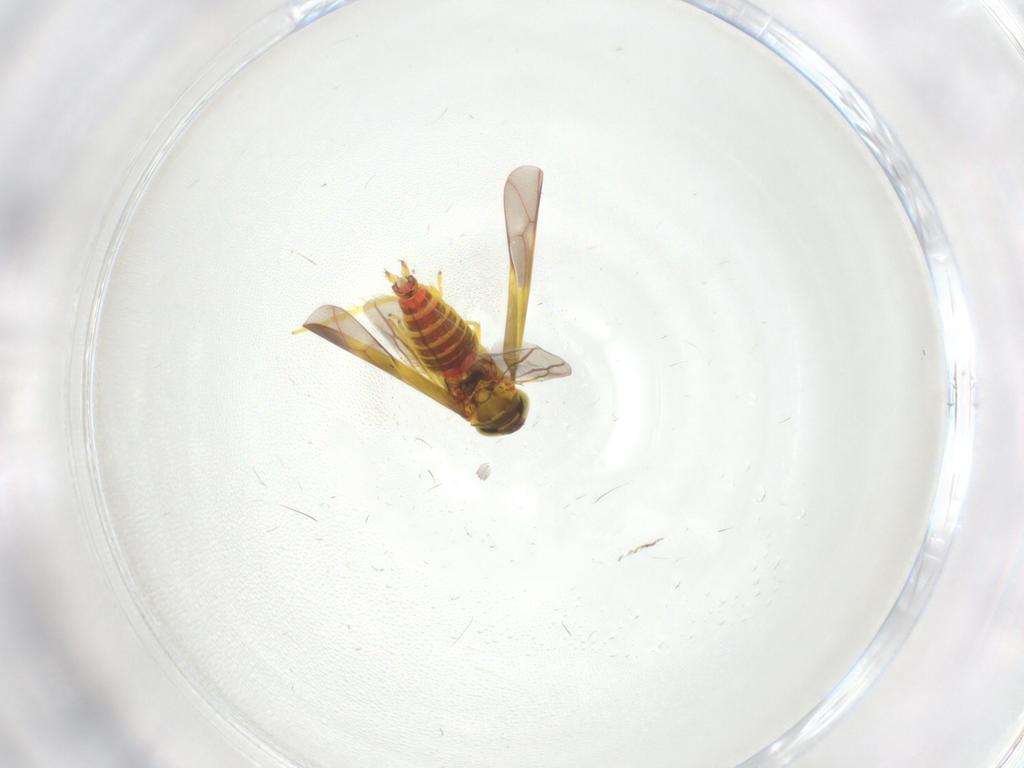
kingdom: Animalia
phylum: Arthropoda
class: Insecta
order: Hemiptera
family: Cicadellidae
